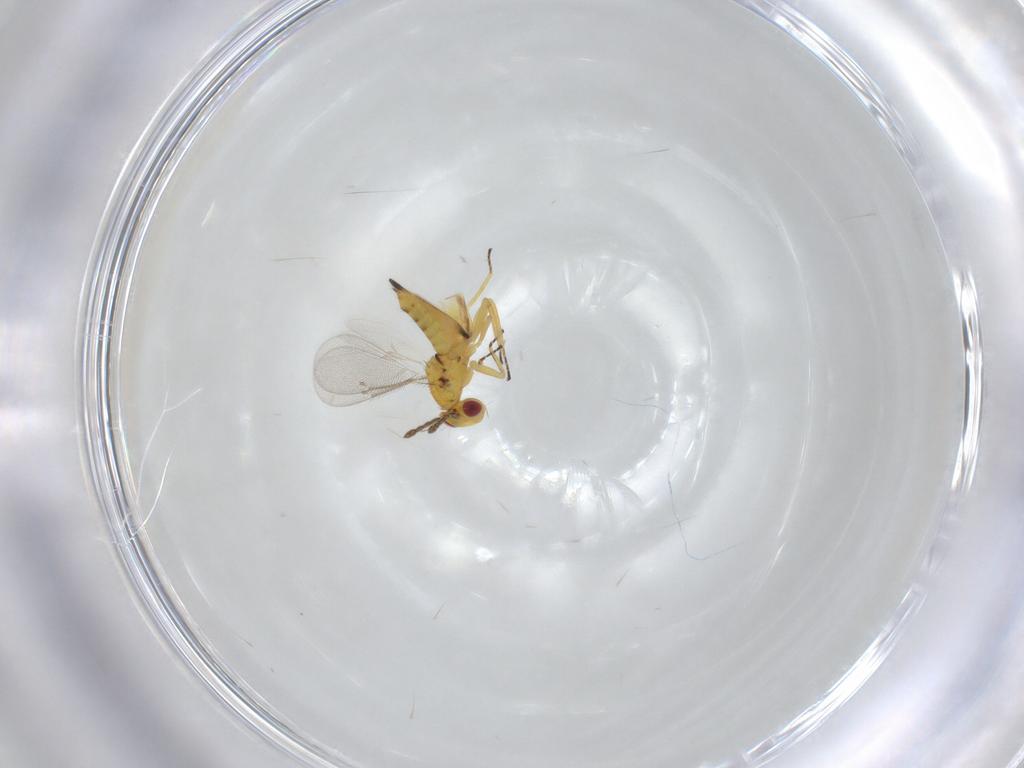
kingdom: Animalia
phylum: Arthropoda
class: Insecta
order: Hymenoptera
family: Eulophidae
